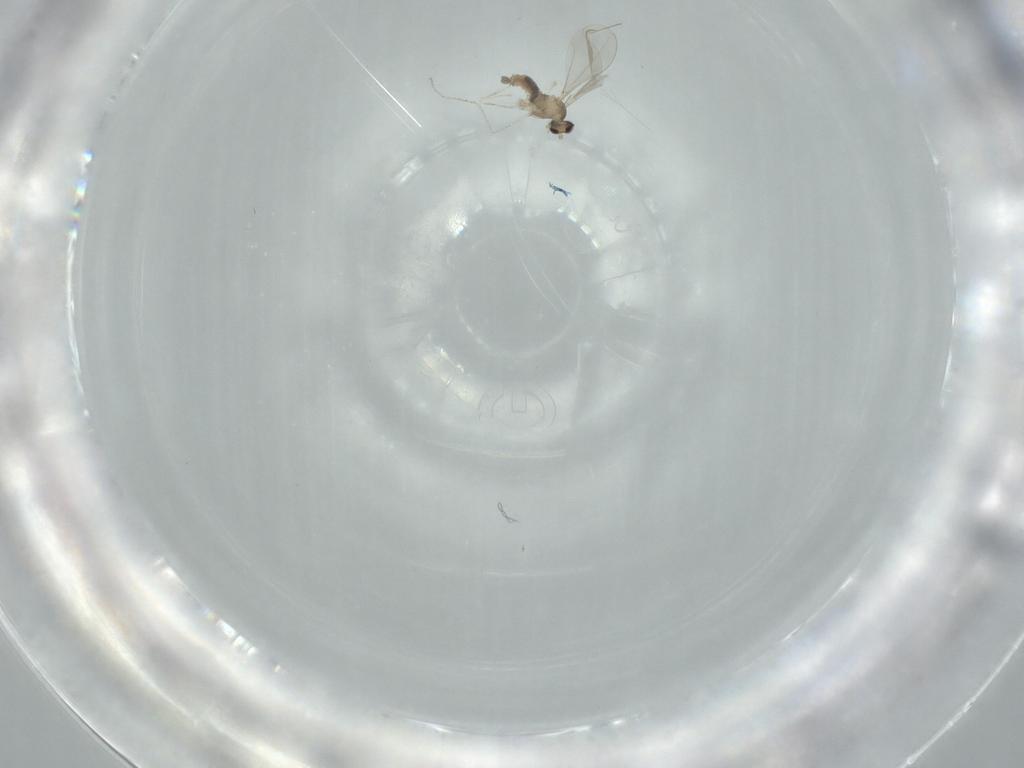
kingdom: Animalia
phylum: Arthropoda
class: Insecta
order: Diptera
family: Cecidomyiidae
